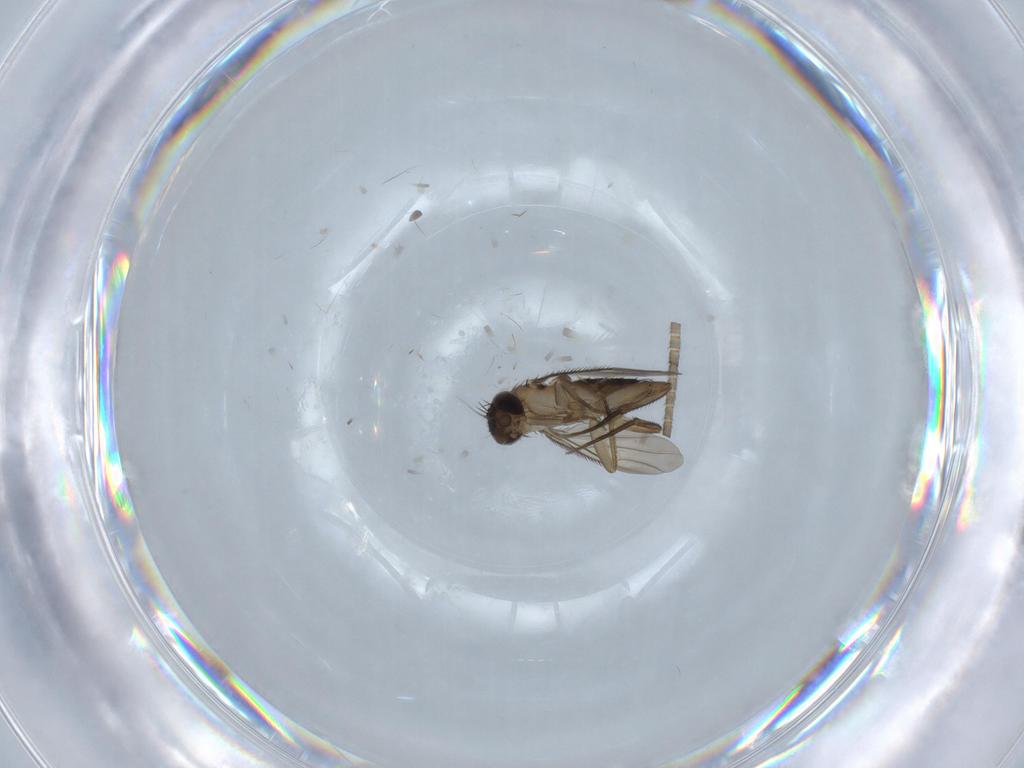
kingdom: Animalia
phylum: Arthropoda
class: Insecta
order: Diptera
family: Phoridae
